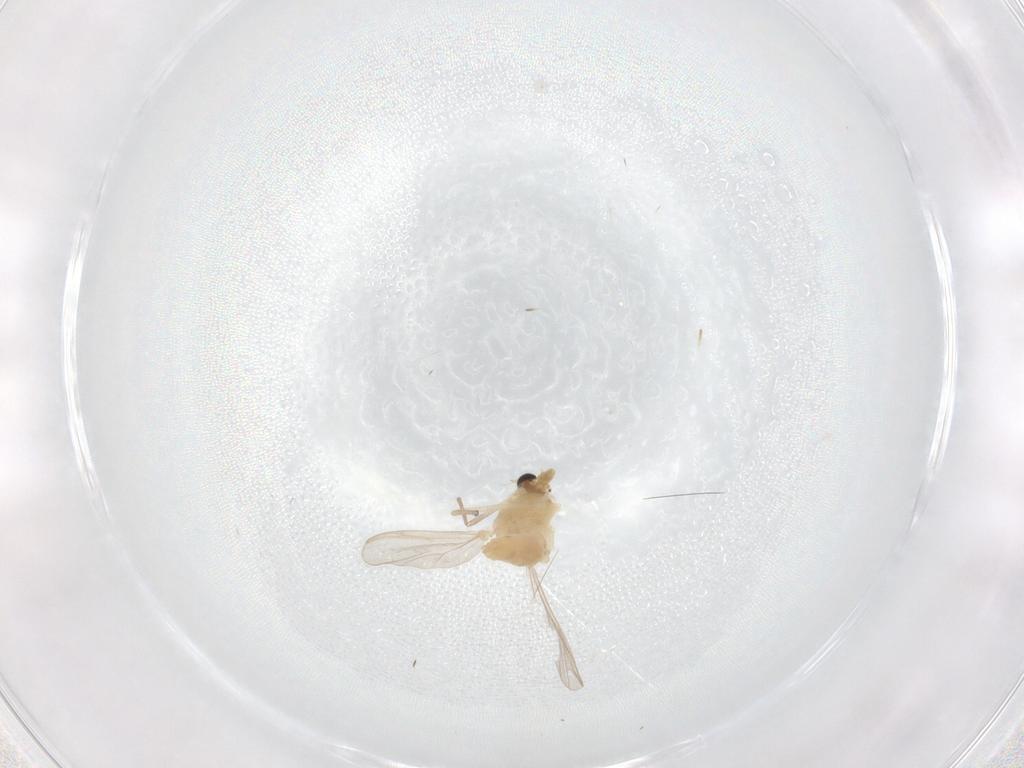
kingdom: Animalia
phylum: Arthropoda
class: Insecta
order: Diptera
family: Chironomidae
